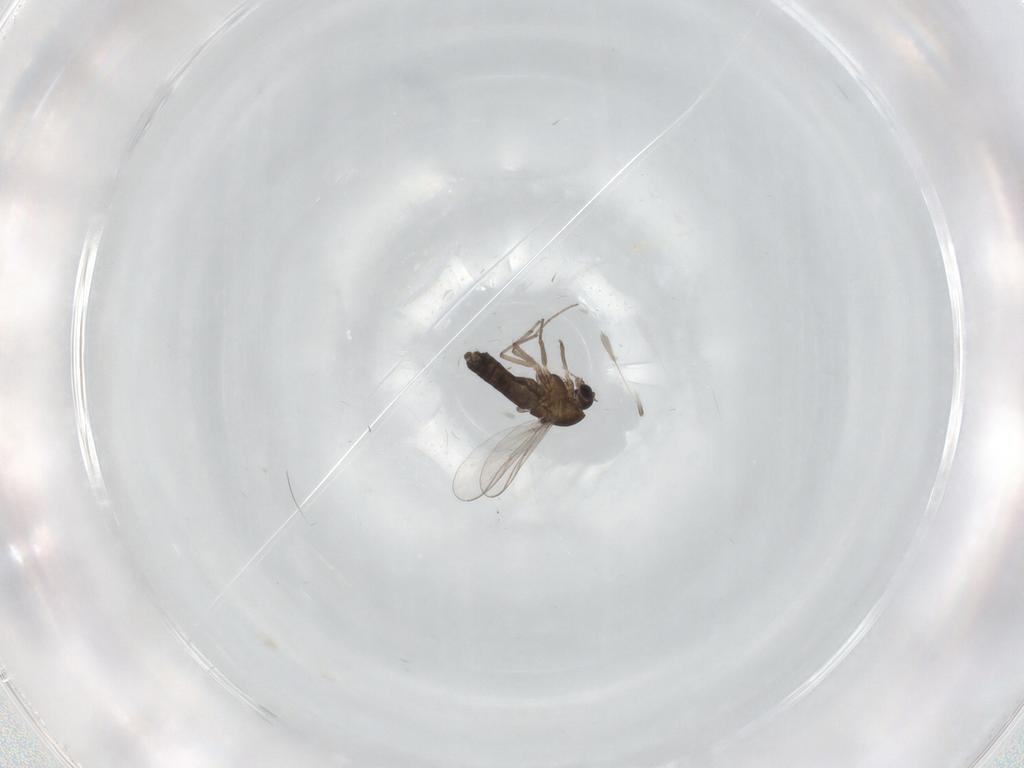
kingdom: Animalia
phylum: Arthropoda
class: Insecta
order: Diptera
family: Chironomidae
